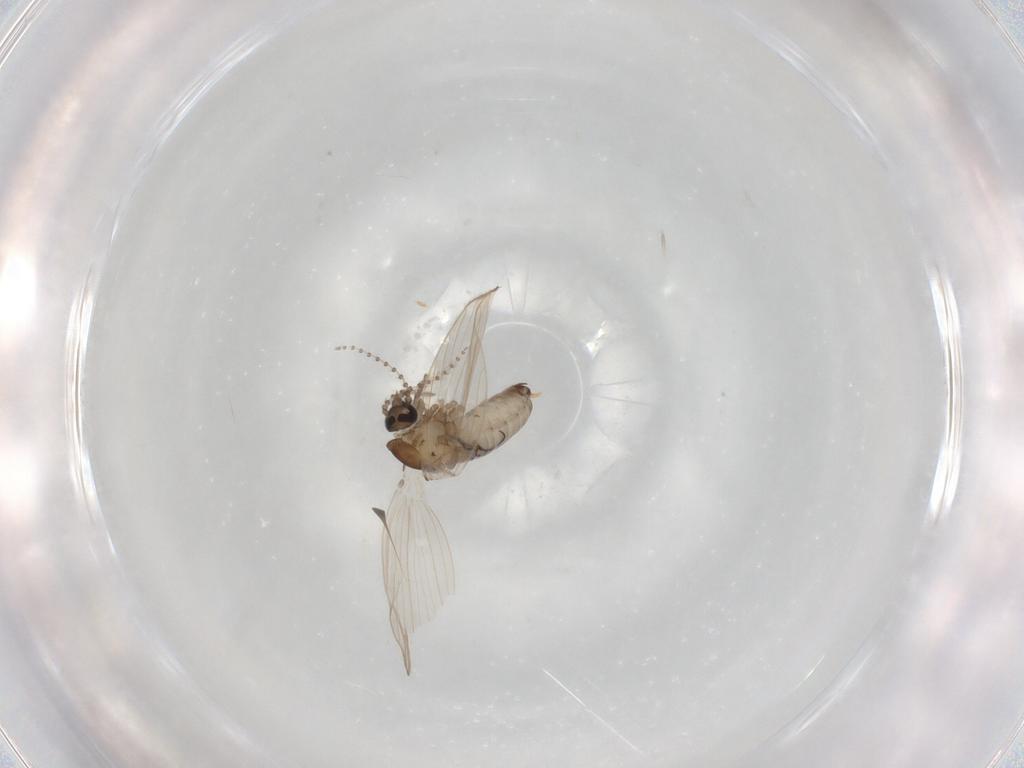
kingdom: Animalia
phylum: Arthropoda
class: Insecta
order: Diptera
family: Psychodidae
